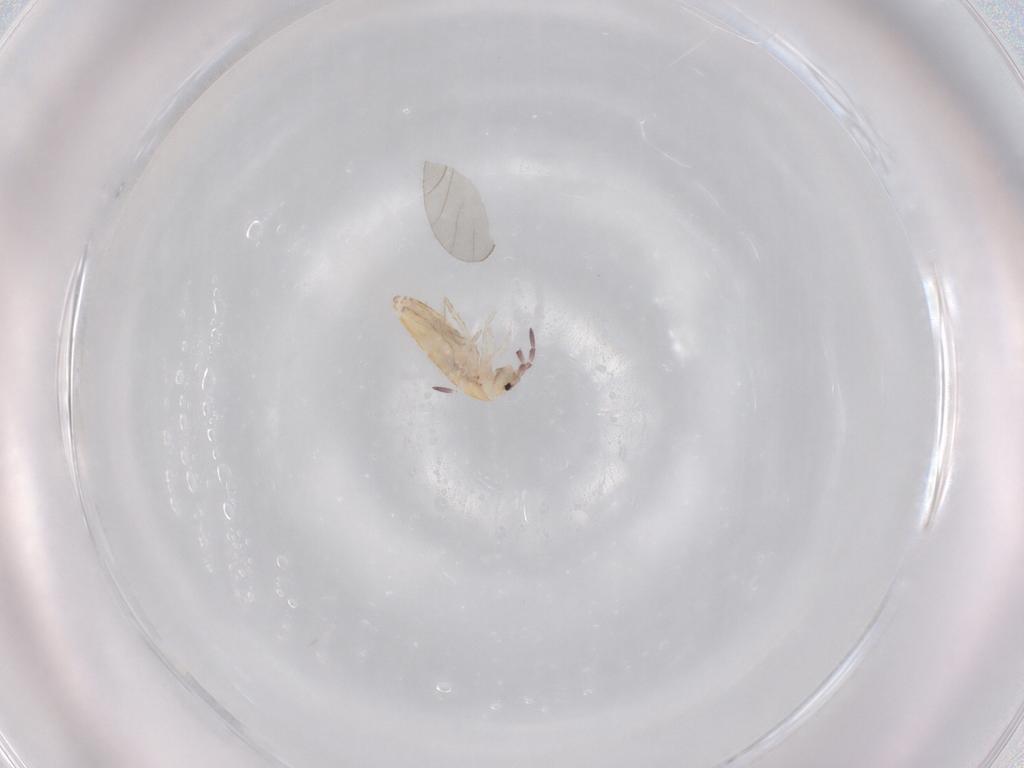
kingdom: Animalia
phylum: Arthropoda
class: Collembola
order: Entomobryomorpha
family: Entomobryidae
